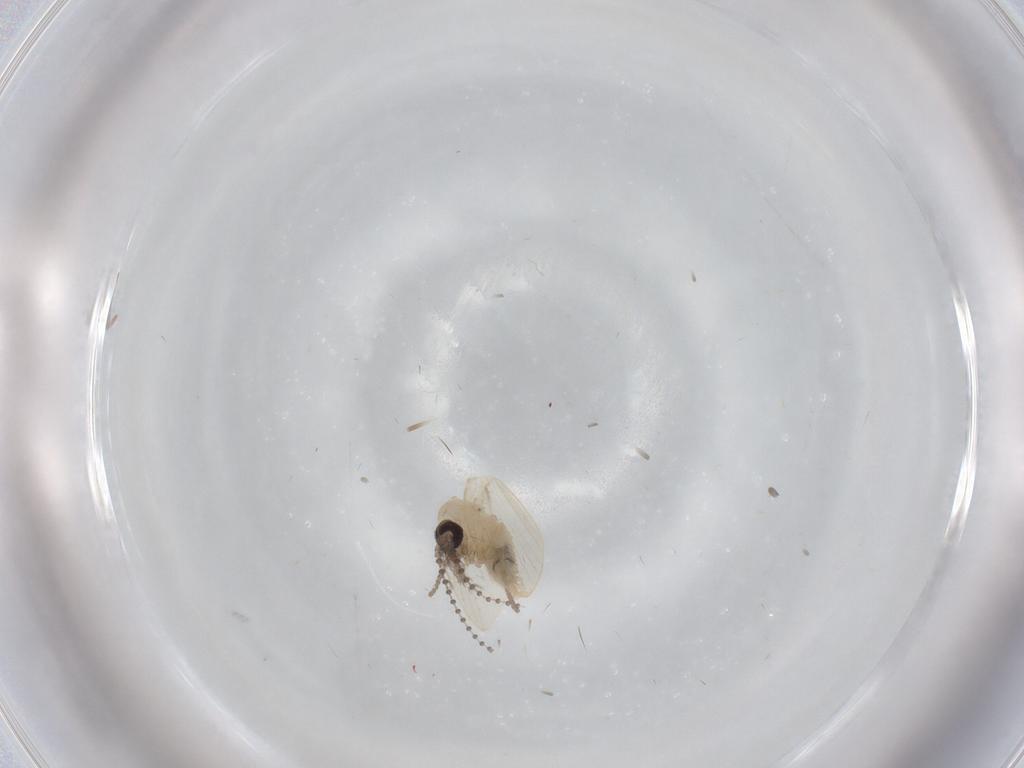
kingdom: Animalia
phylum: Arthropoda
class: Insecta
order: Diptera
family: Psychodidae
